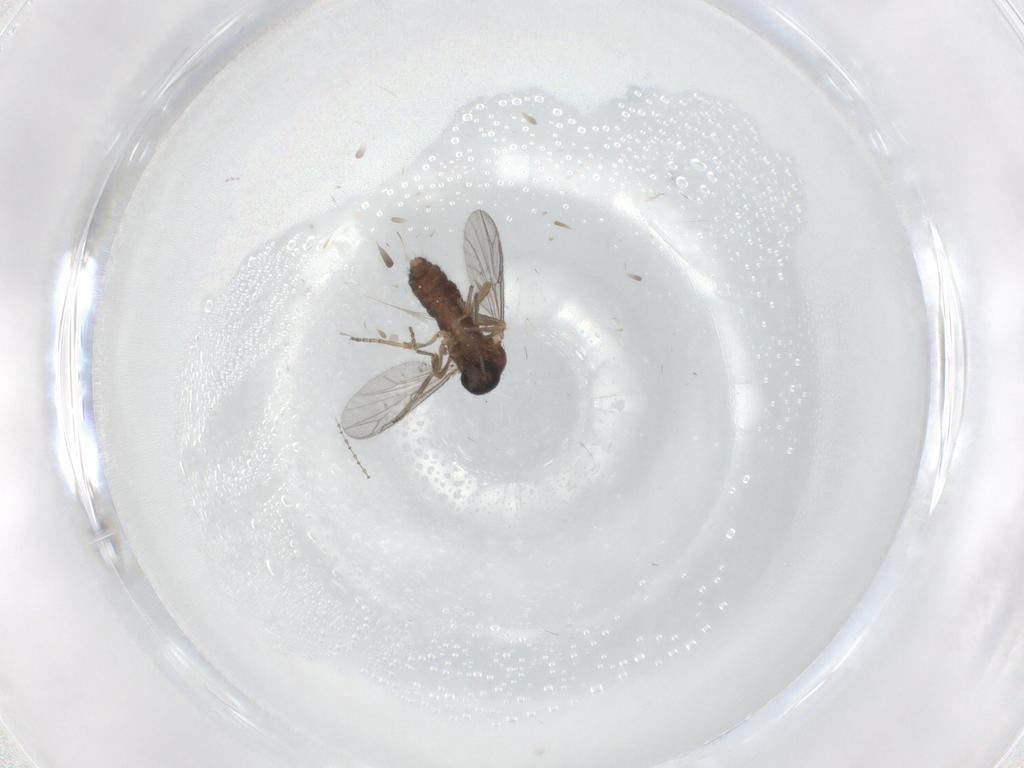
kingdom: Animalia
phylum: Arthropoda
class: Insecta
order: Diptera
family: Ceratopogonidae
